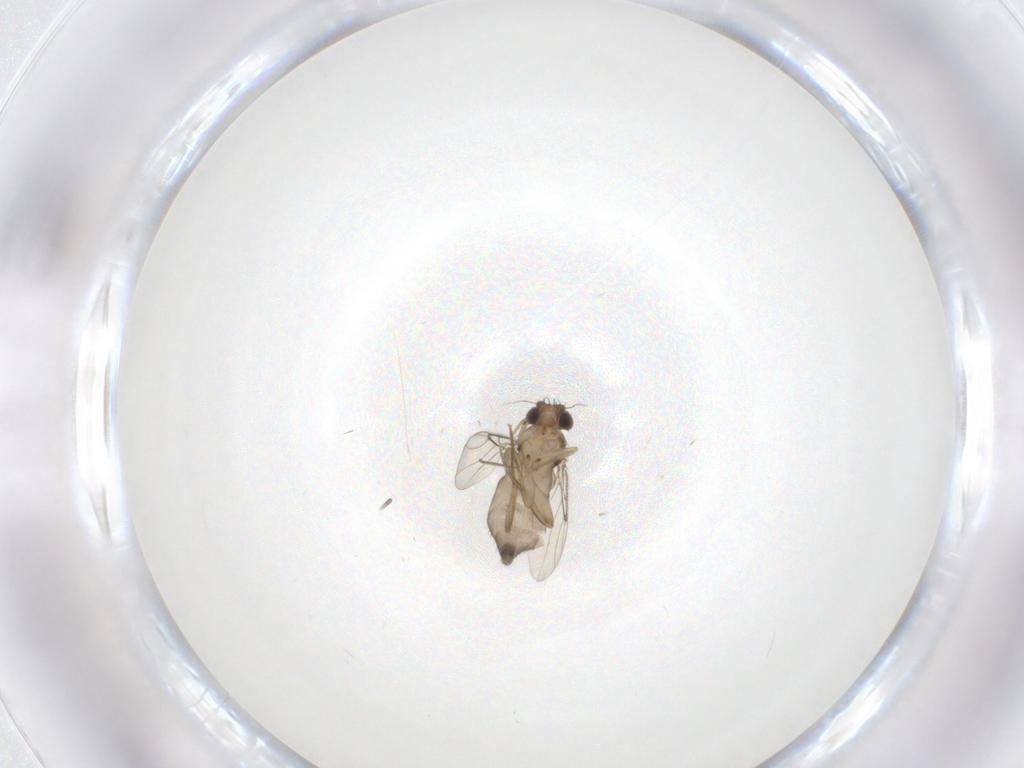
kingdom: Animalia
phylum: Arthropoda
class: Insecta
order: Diptera
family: Phoridae
